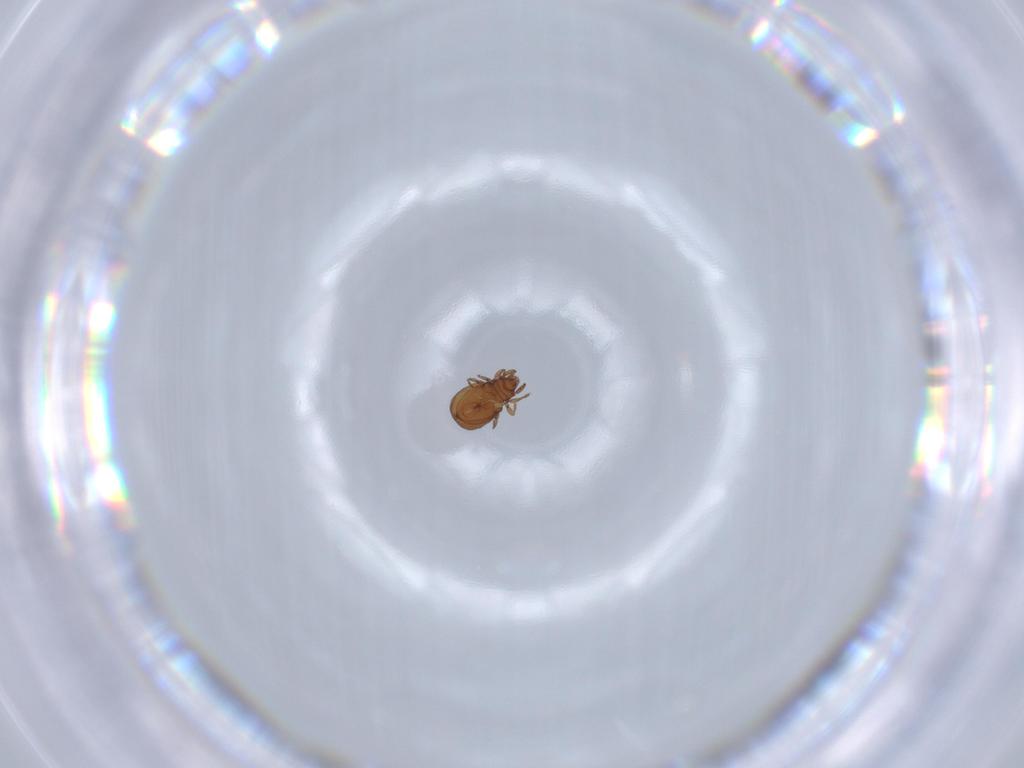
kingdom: Animalia
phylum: Arthropoda
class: Arachnida
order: Sarcoptiformes
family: Eremaeidae
